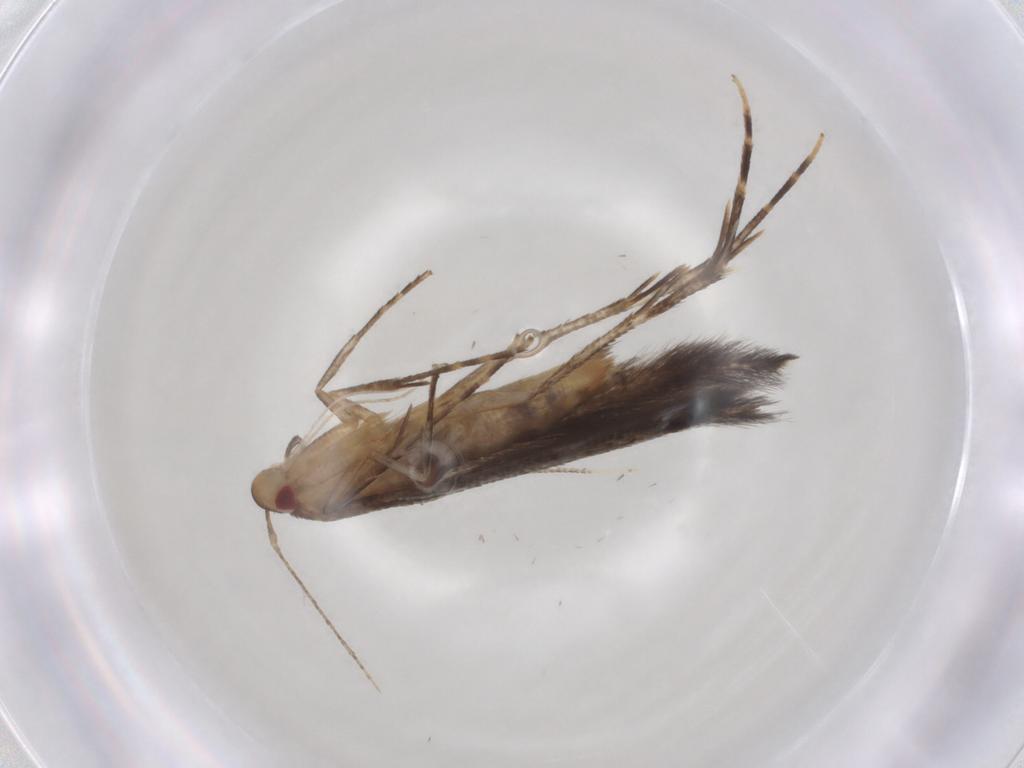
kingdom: Animalia
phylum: Arthropoda
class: Insecta
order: Lepidoptera
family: Cosmopterigidae
